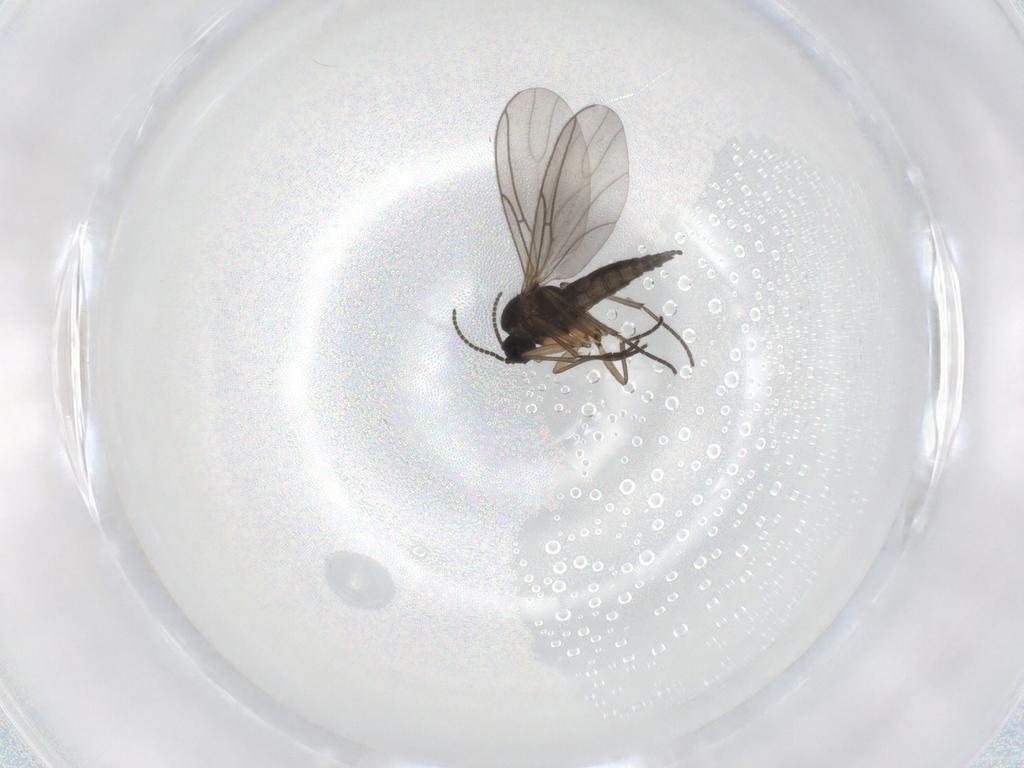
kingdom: Animalia
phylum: Arthropoda
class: Insecta
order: Diptera
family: Sciaridae
